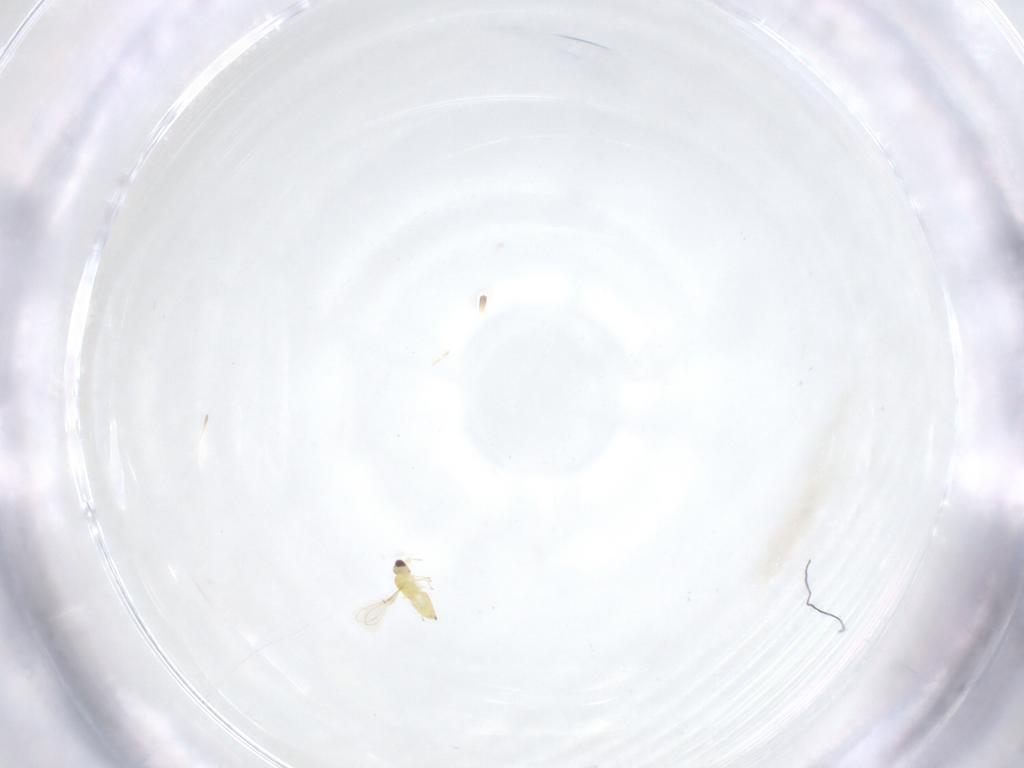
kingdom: Animalia
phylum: Arthropoda
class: Insecta
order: Hymenoptera
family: Mymaridae
